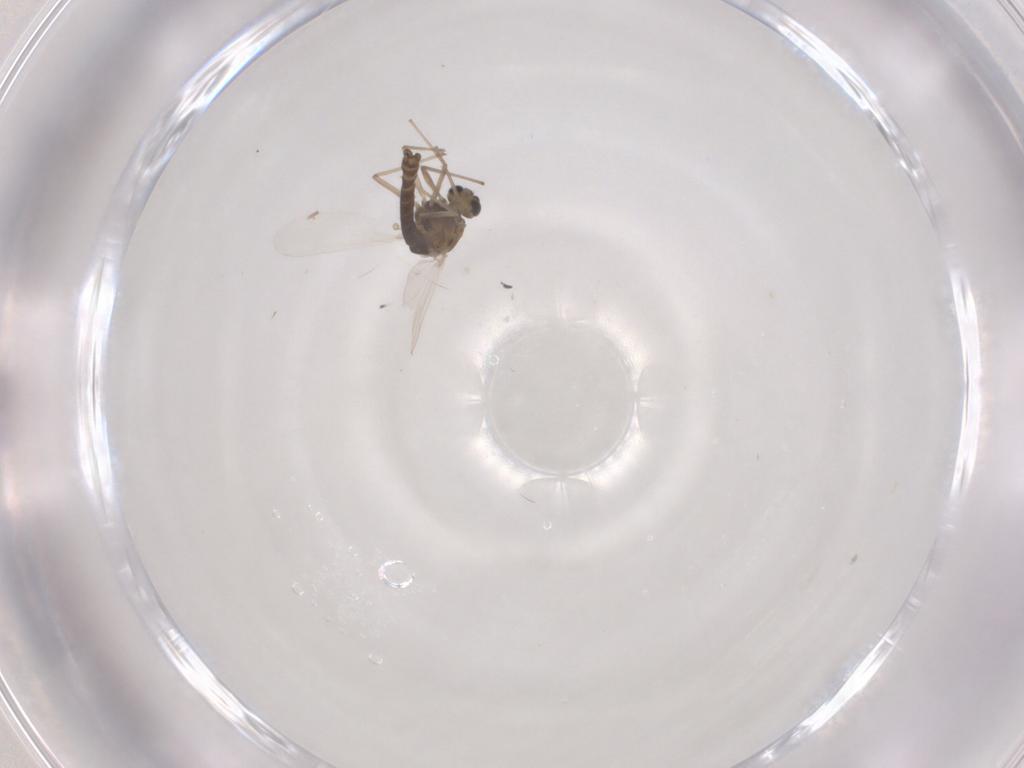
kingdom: Animalia
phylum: Arthropoda
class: Insecta
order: Diptera
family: Chironomidae
